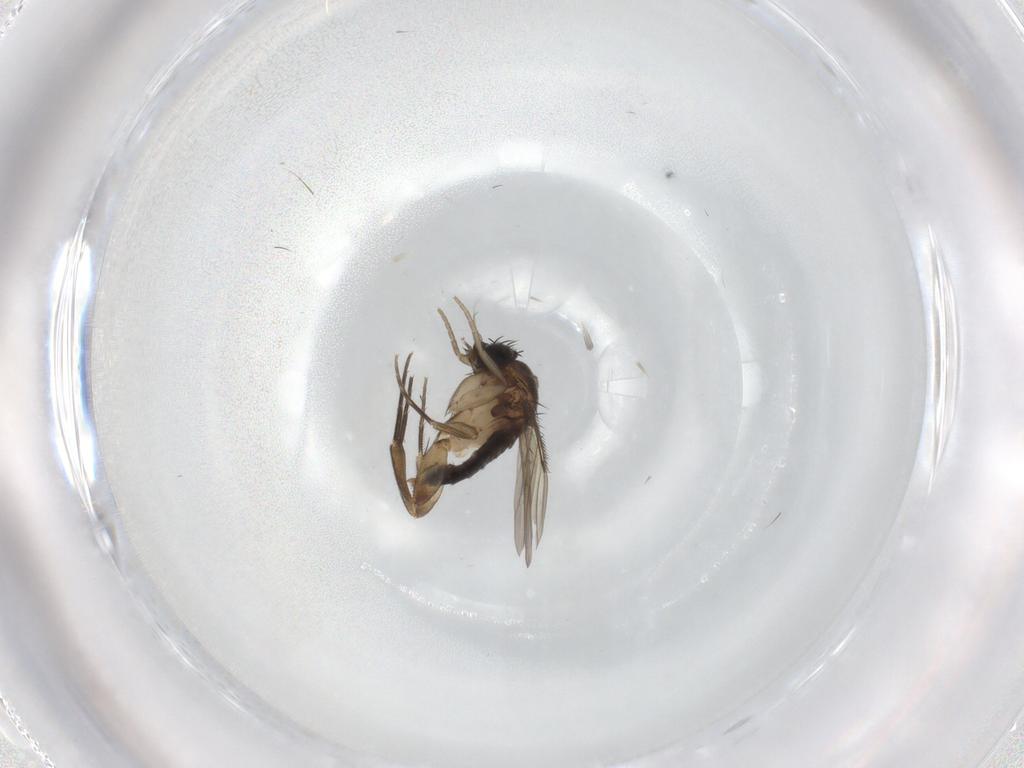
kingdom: Animalia
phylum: Arthropoda
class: Insecta
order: Diptera
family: Phoridae
